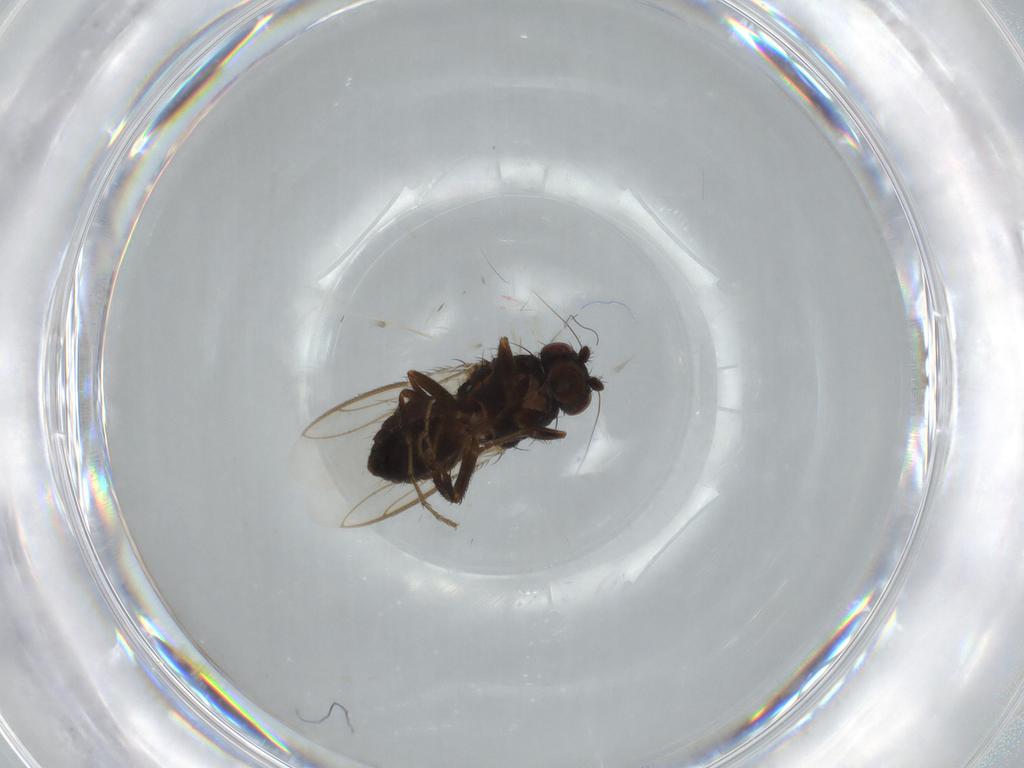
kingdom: Animalia
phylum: Arthropoda
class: Insecta
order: Diptera
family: Sphaeroceridae
